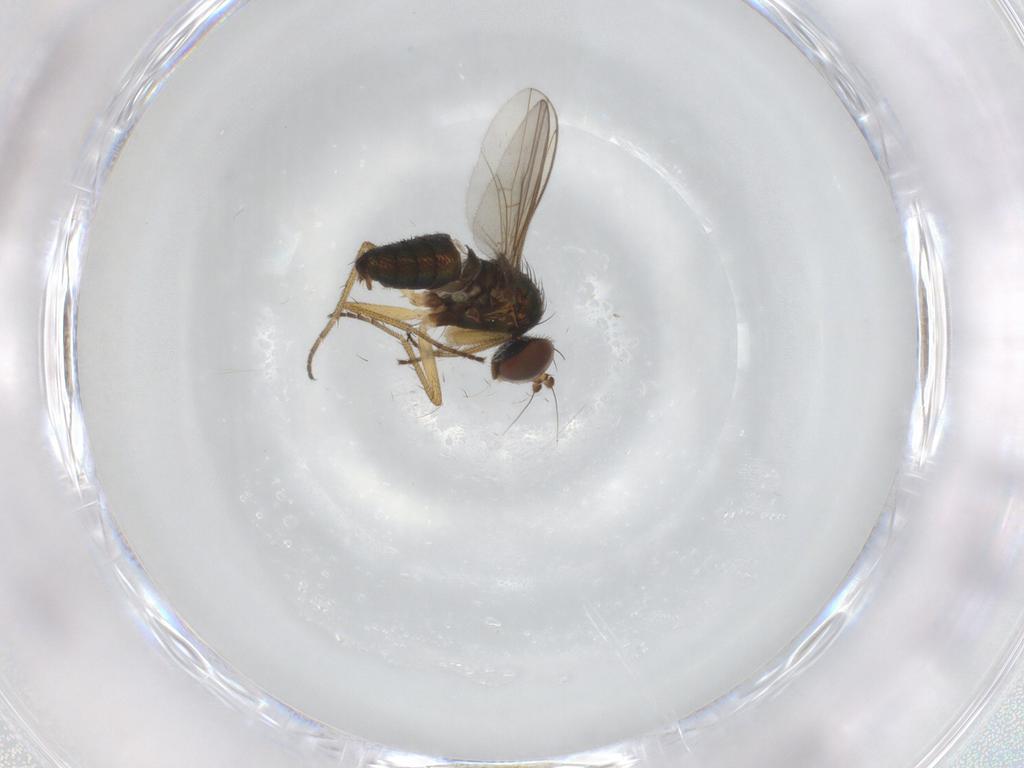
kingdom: Animalia
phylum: Arthropoda
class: Insecta
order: Diptera
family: Dolichopodidae
